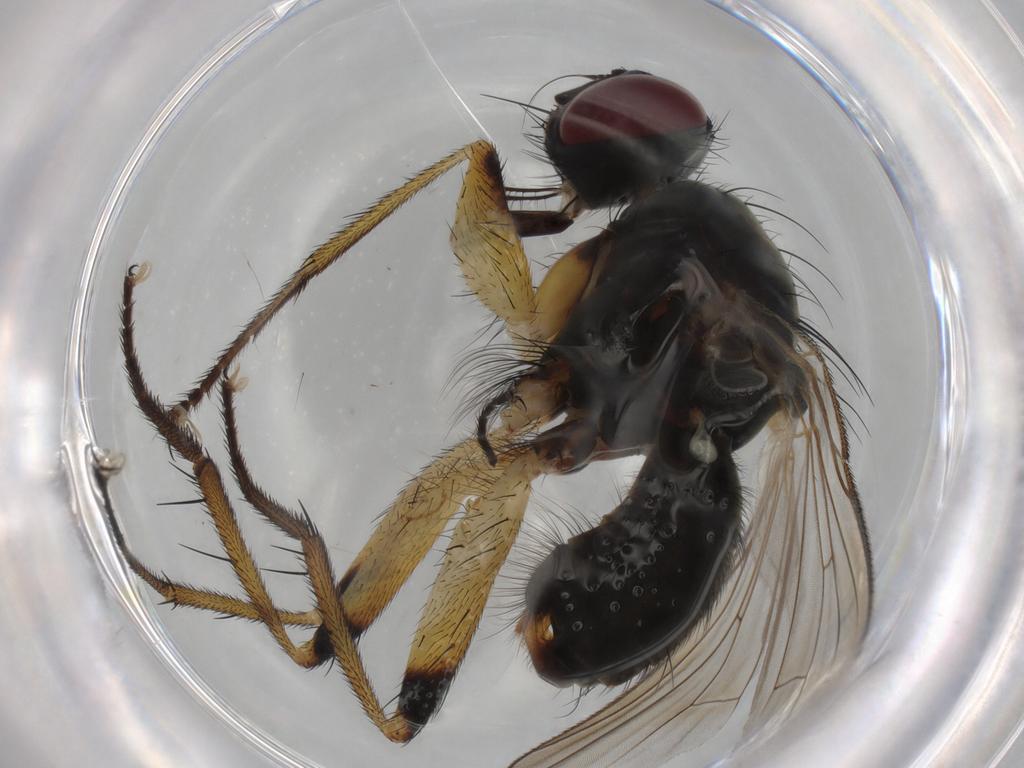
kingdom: Animalia
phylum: Arthropoda
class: Insecta
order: Diptera
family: Muscidae
